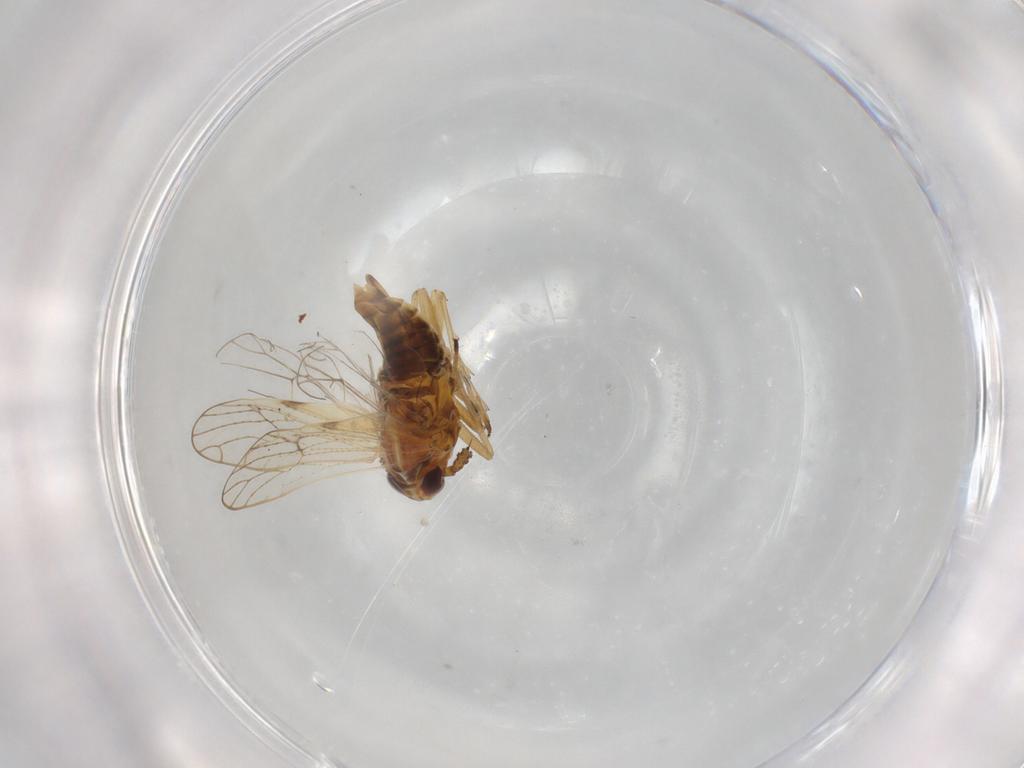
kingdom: Animalia
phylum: Arthropoda
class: Insecta
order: Hemiptera
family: Delphacidae
